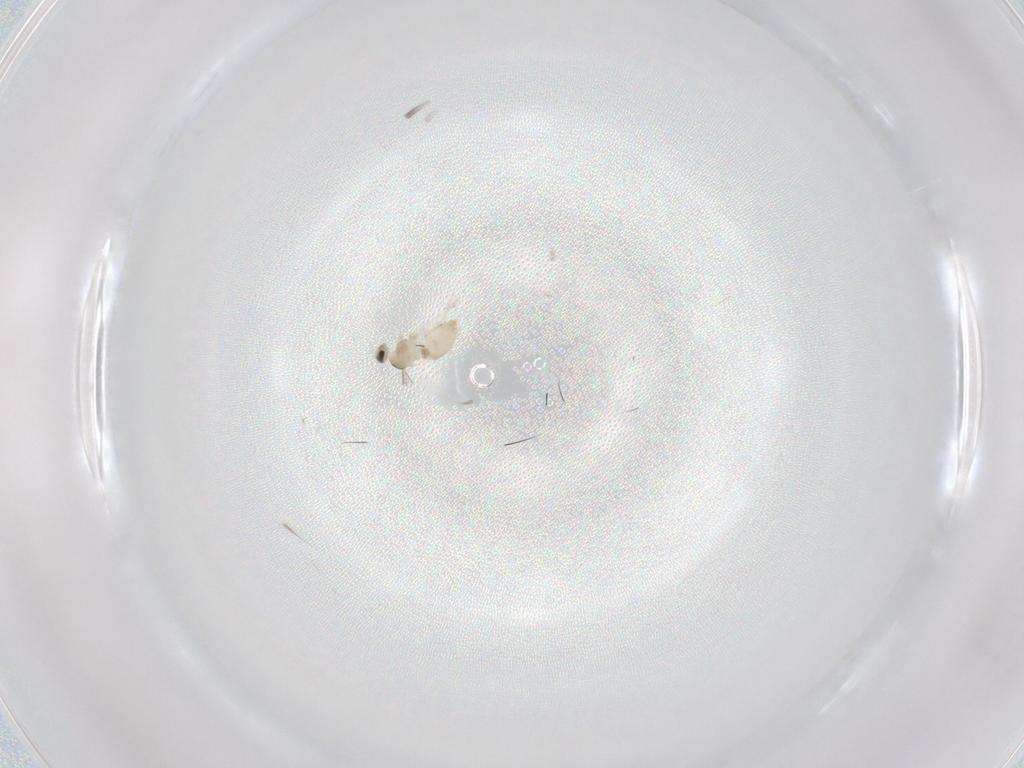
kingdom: Animalia
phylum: Arthropoda
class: Insecta
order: Diptera
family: Cecidomyiidae
